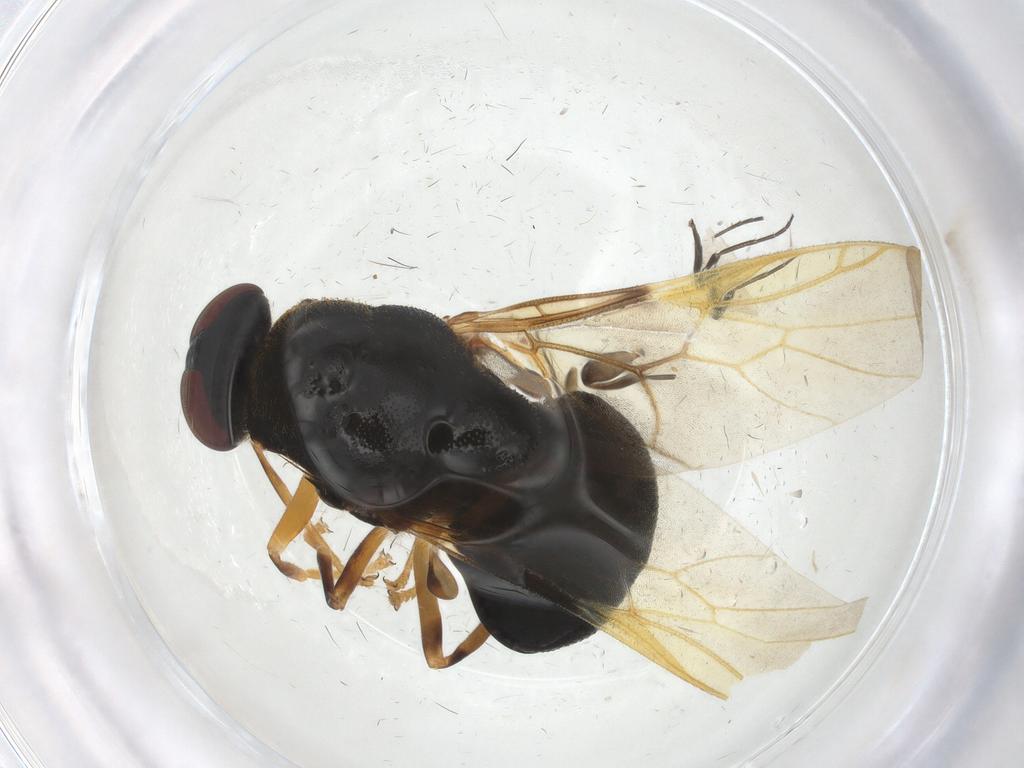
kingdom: Animalia
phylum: Arthropoda
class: Insecta
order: Diptera
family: Stratiomyidae
